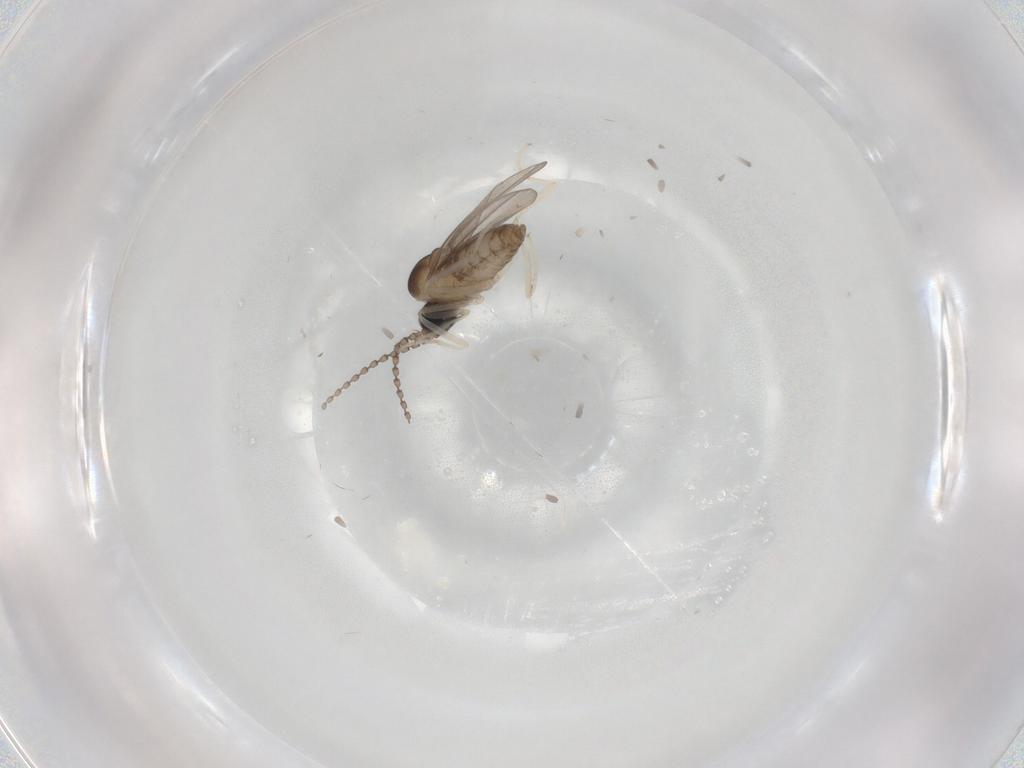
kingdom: Animalia
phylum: Arthropoda
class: Insecta
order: Diptera
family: Cecidomyiidae
